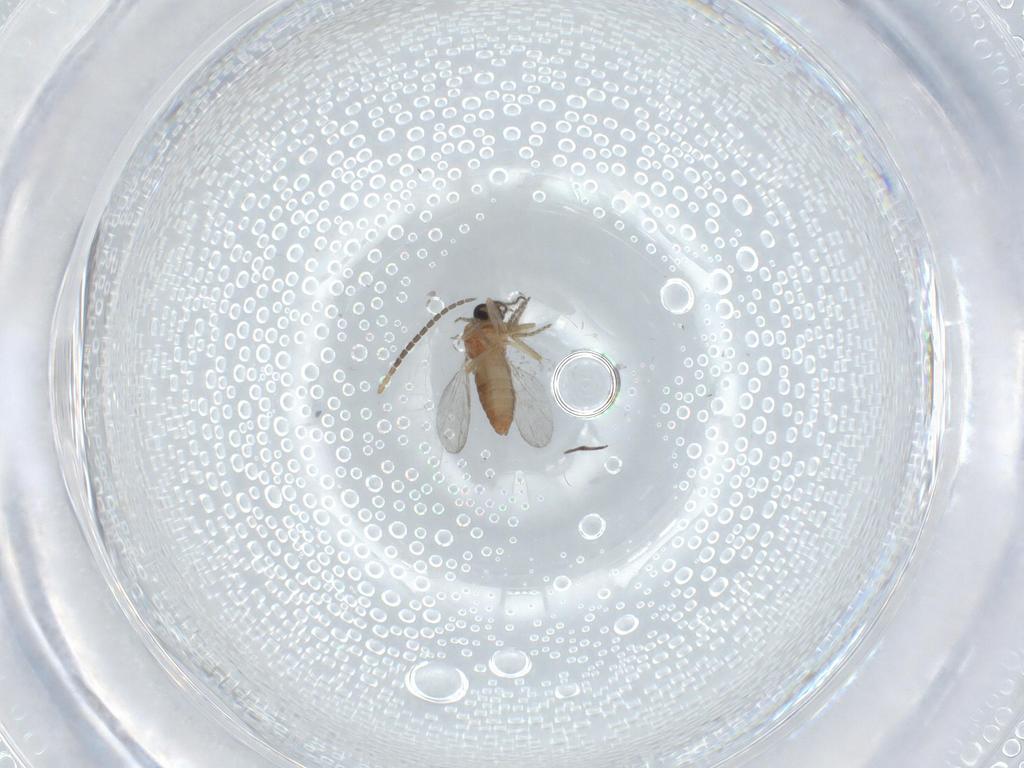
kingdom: Animalia
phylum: Arthropoda
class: Insecta
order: Diptera
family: Sciaridae
